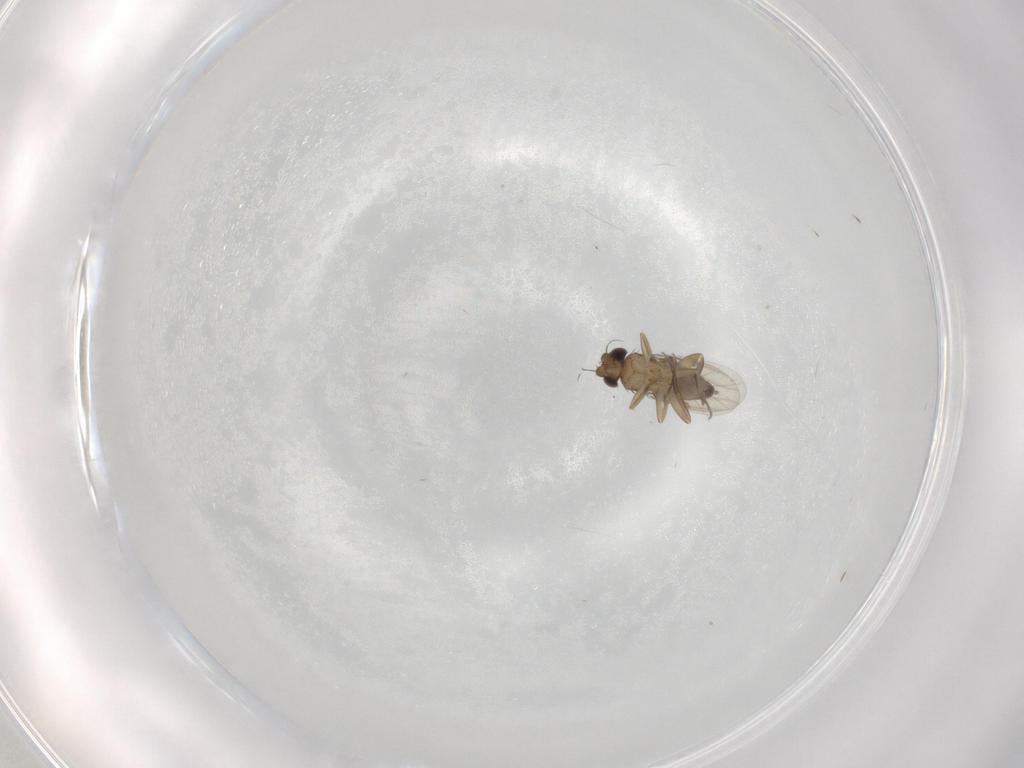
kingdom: Animalia
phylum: Arthropoda
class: Insecta
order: Diptera
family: Phoridae
